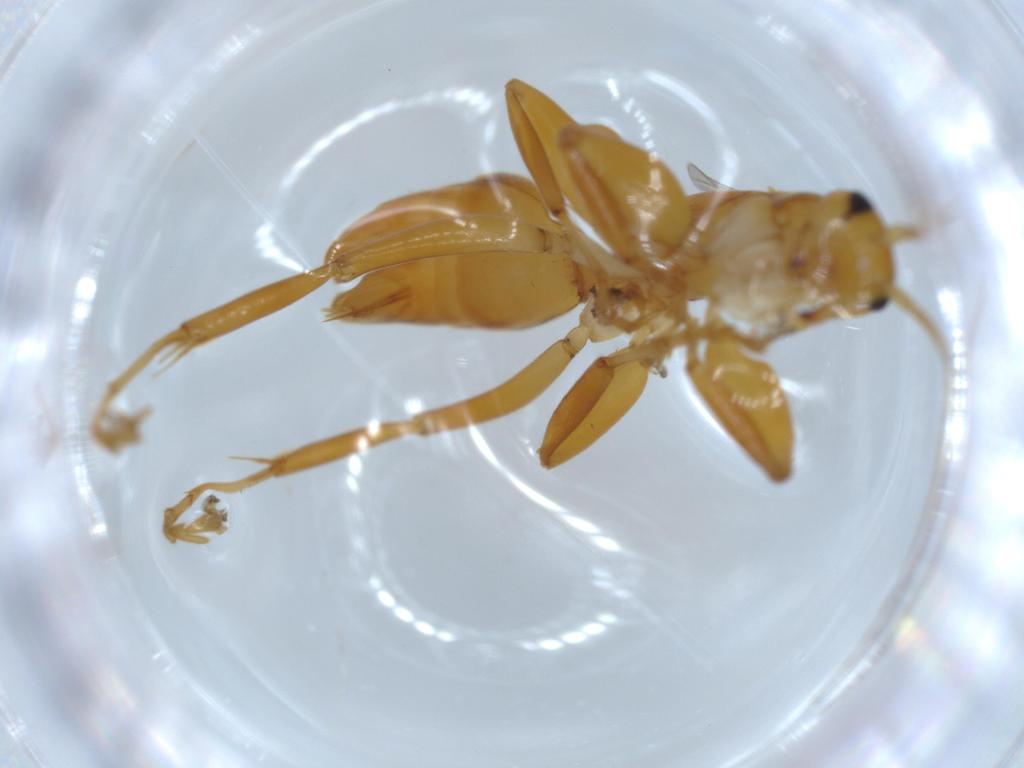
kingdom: Animalia
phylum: Arthropoda
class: Insecta
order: Hymenoptera
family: Rhopalosomatidae
